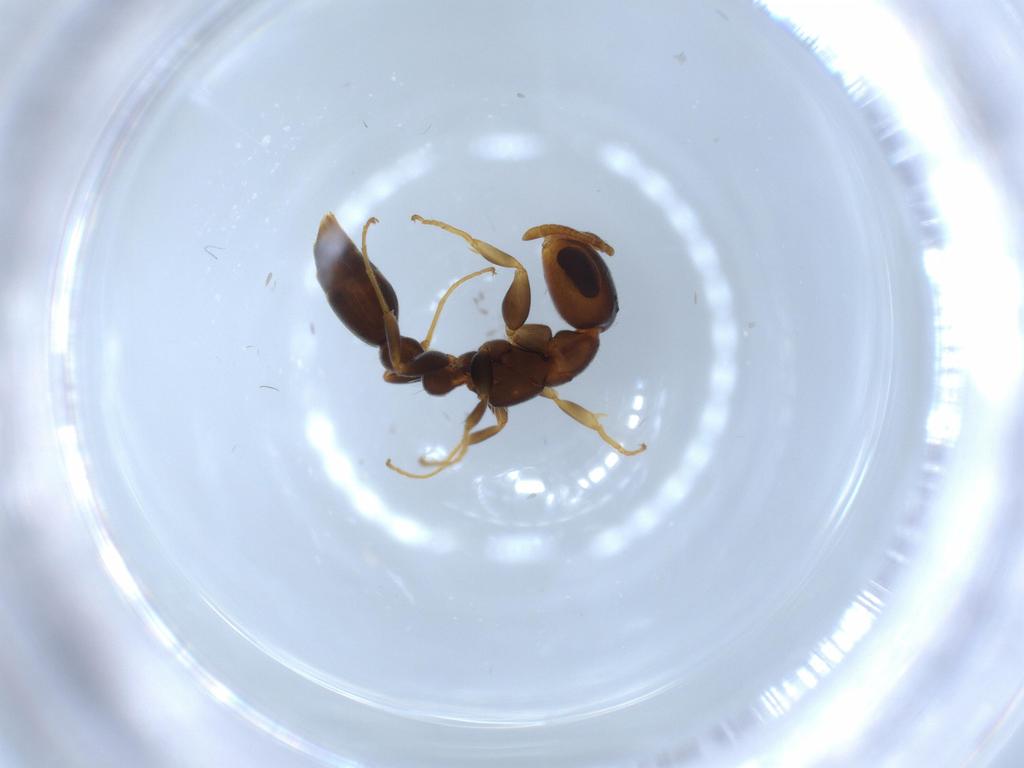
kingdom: Animalia
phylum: Arthropoda
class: Insecta
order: Hymenoptera
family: Formicidae
